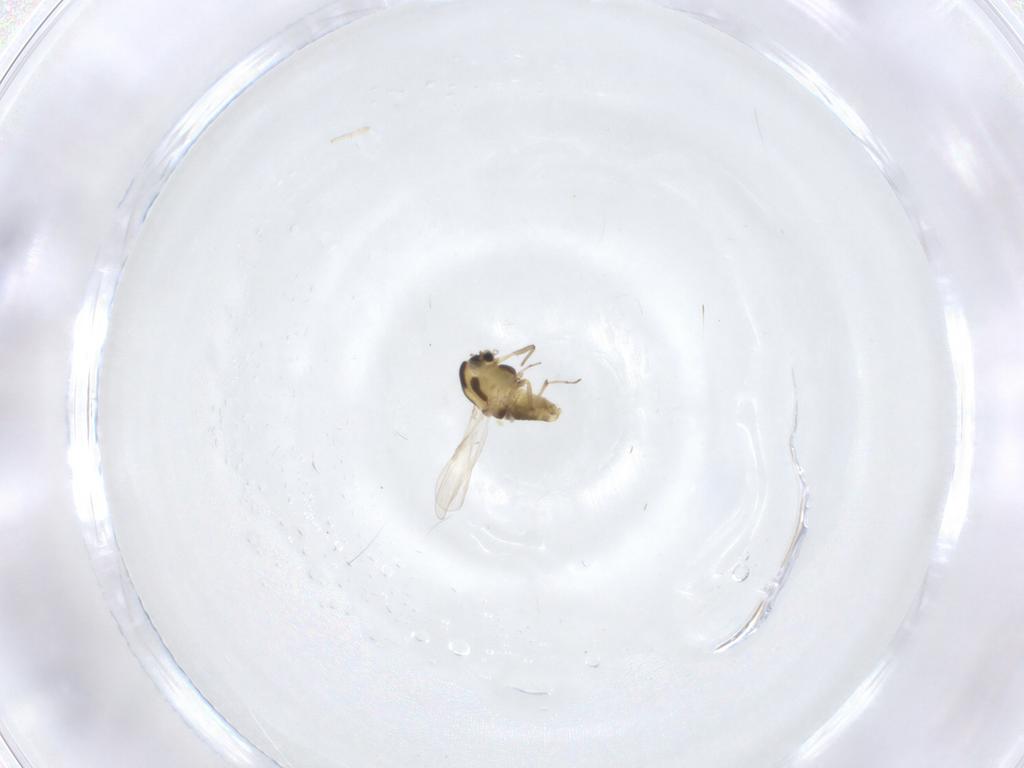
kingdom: Animalia
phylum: Arthropoda
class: Insecta
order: Diptera
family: Chironomidae
